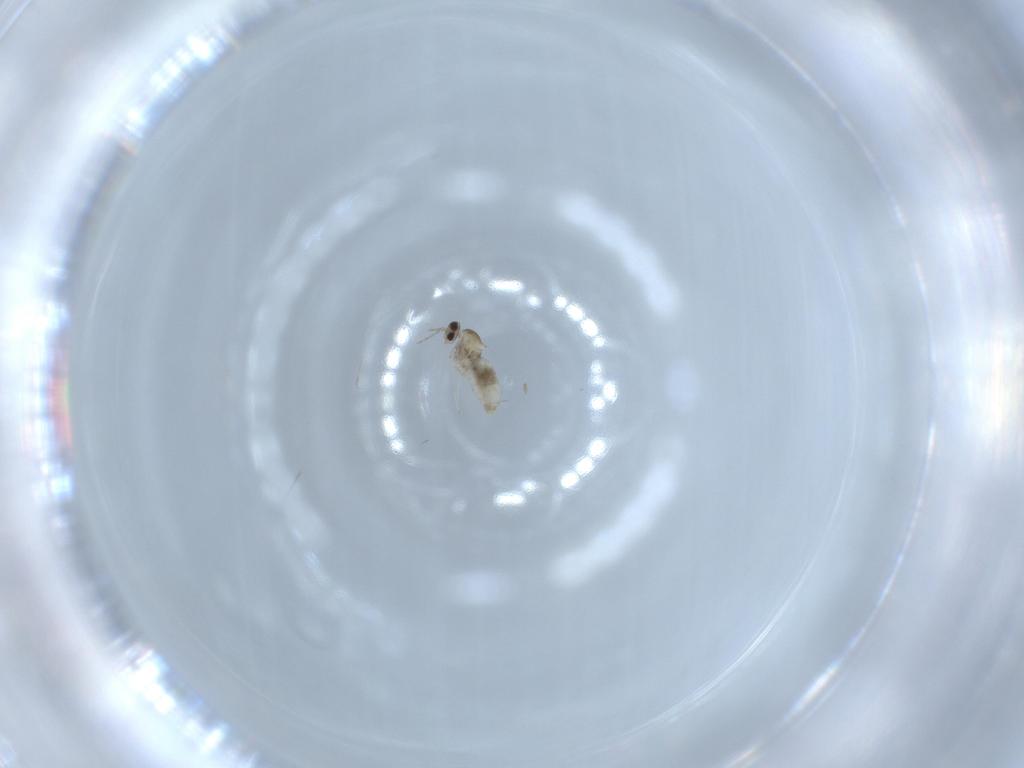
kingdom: Animalia
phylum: Arthropoda
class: Insecta
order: Diptera
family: Cecidomyiidae
